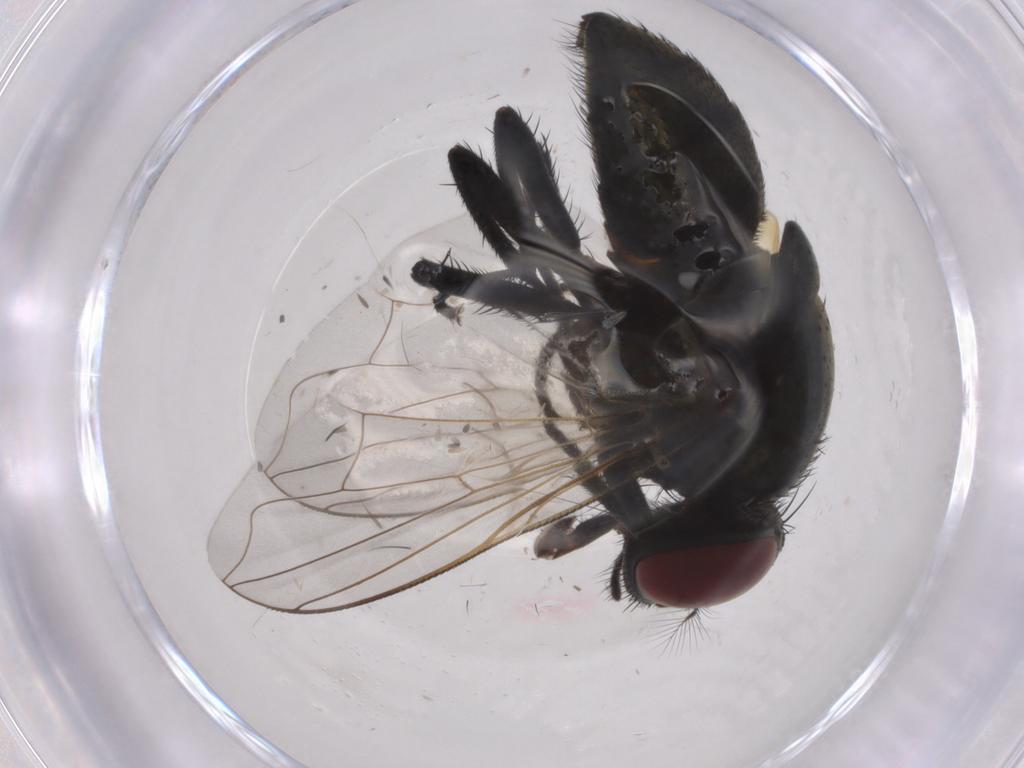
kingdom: Animalia
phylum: Arthropoda
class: Insecta
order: Diptera
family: Muscidae
